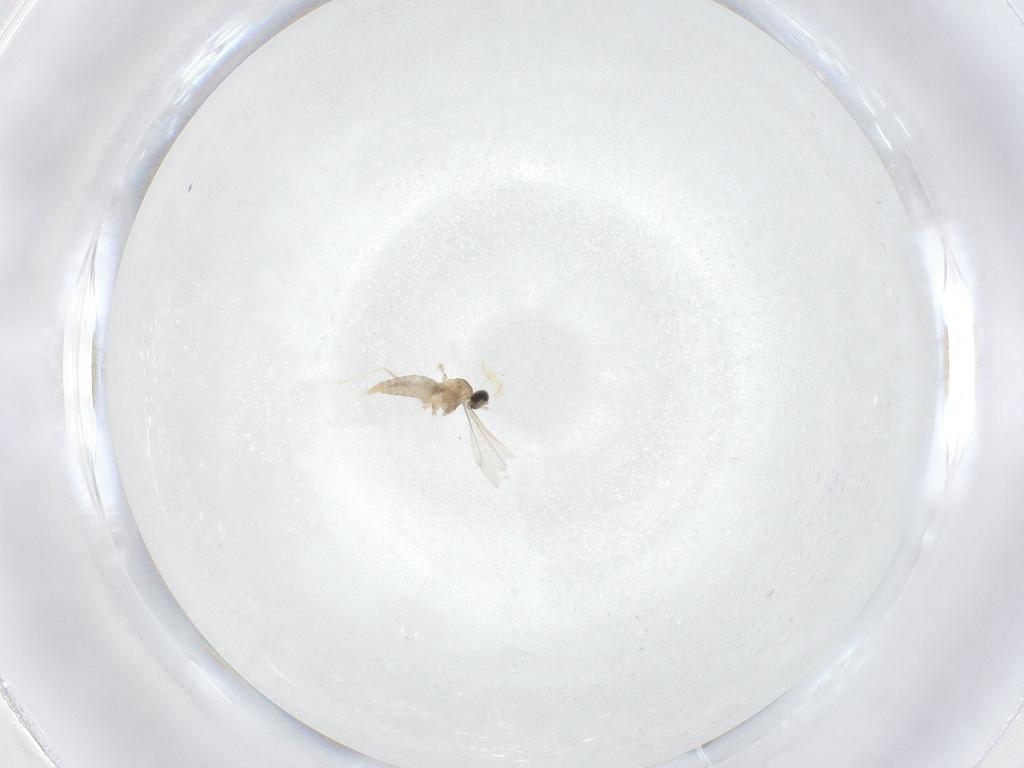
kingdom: Animalia
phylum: Arthropoda
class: Insecta
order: Diptera
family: Cecidomyiidae
